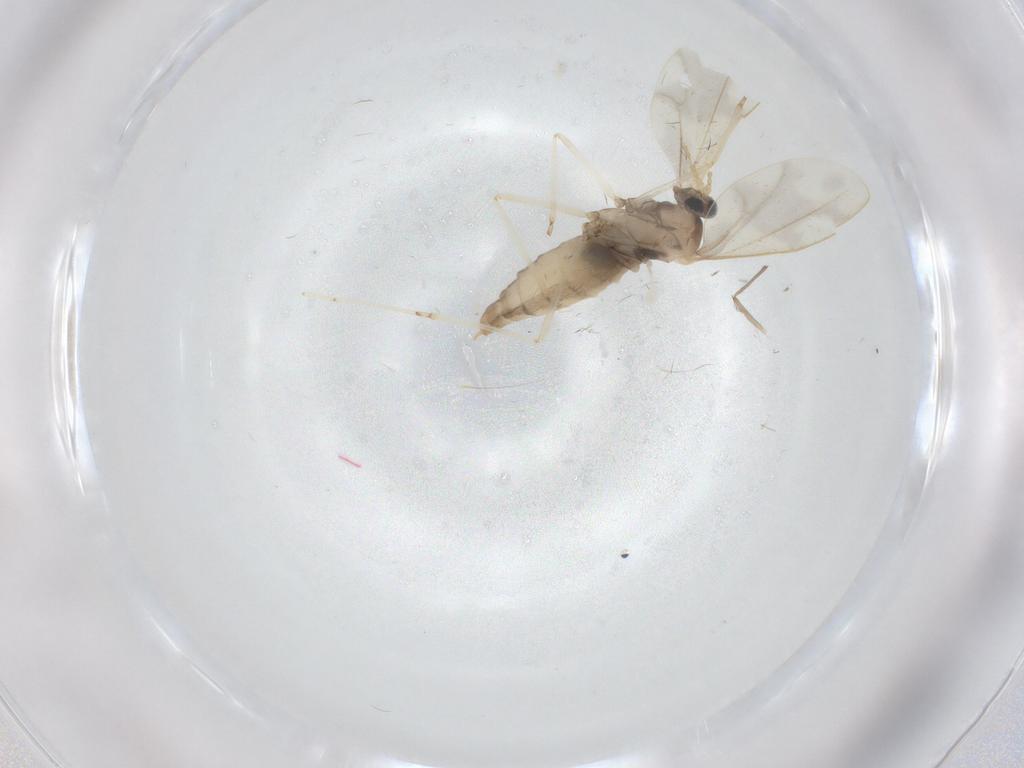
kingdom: Animalia
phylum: Arthropoda
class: Insecta
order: Diptera
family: Cecidomyiidae
